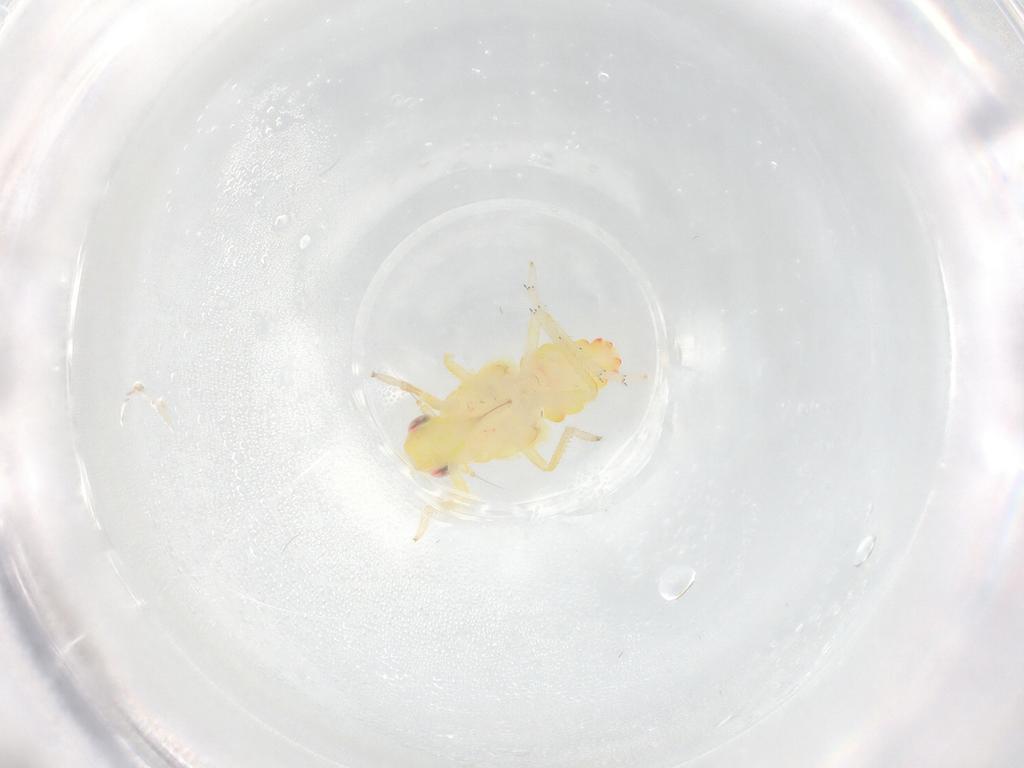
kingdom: Animalia
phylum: Arthropoda
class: Insecta
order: Hemiptera
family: Tropiduchidae
